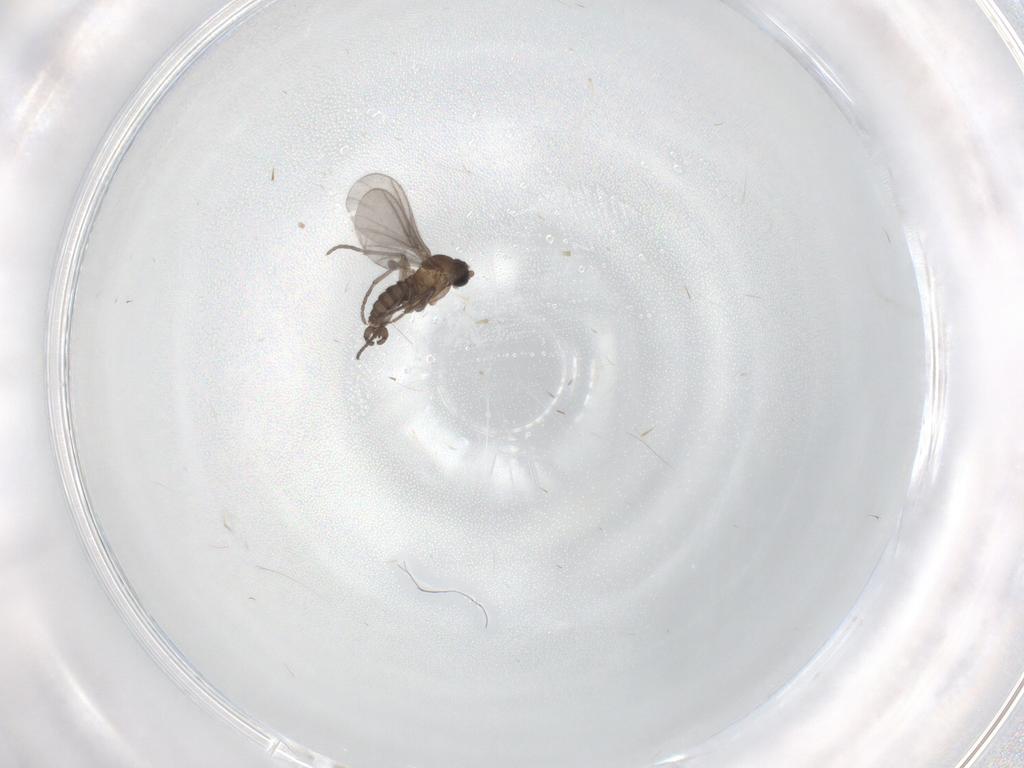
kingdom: Animalia
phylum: Arthropoda
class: Insecta
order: Diptera
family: Sciaridae
